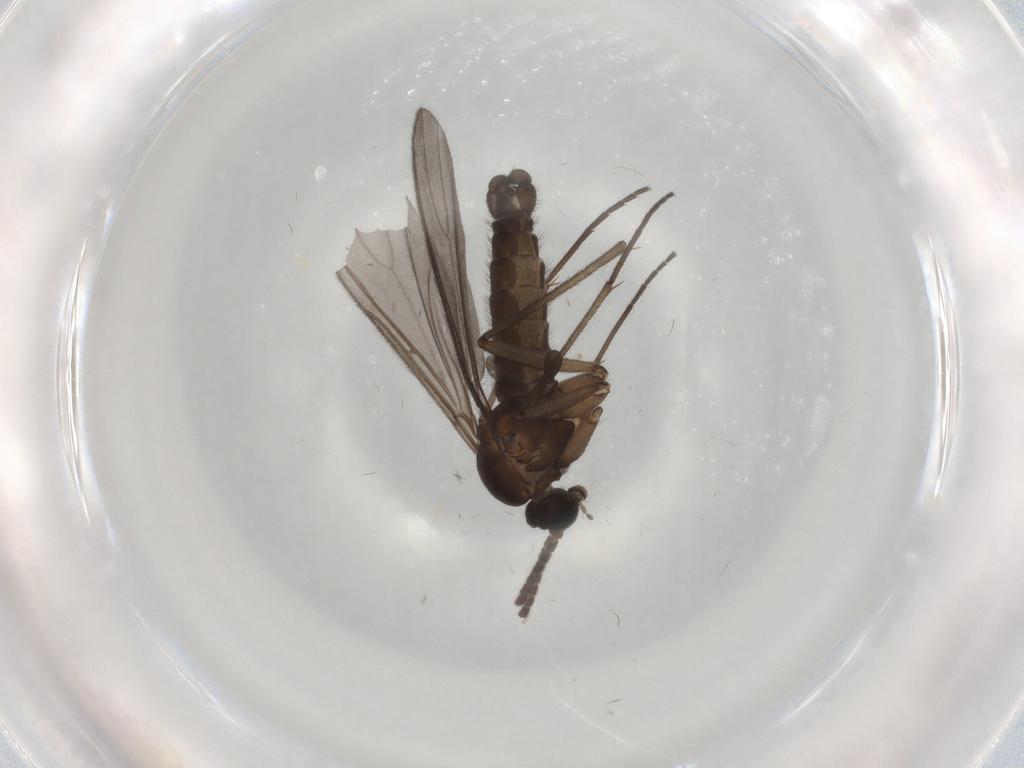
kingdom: Animalia
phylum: Arthropoda
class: Insecta
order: Diptera
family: Sciaridae
